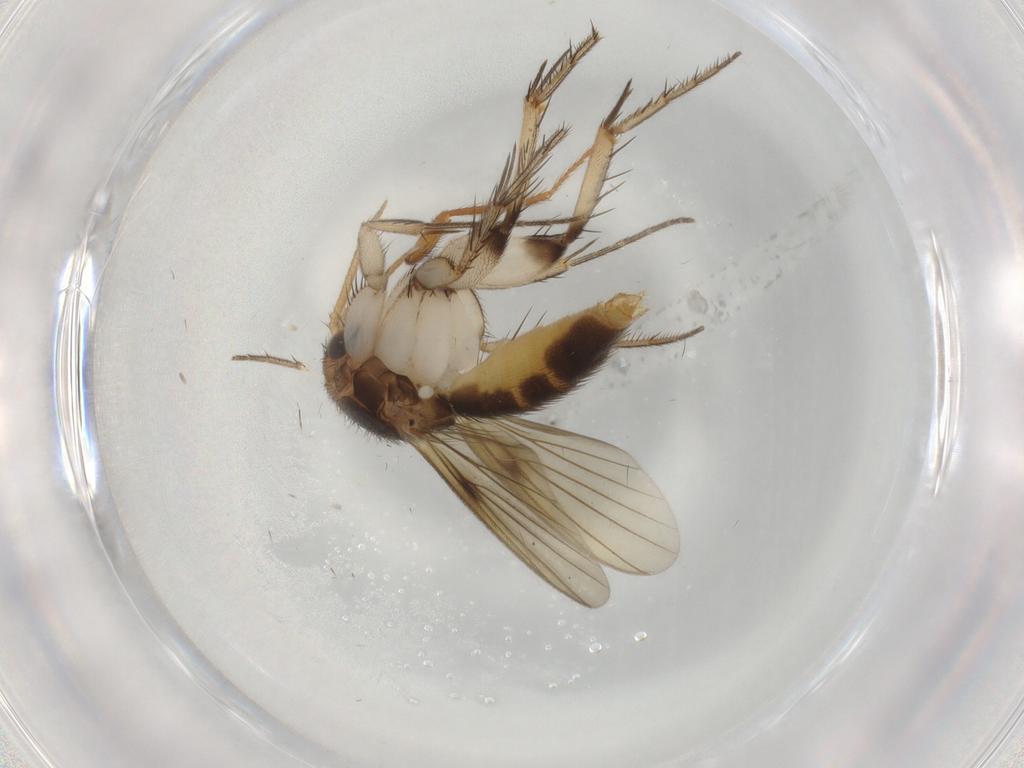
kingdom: Animalia
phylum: Arthropoda
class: Insecta
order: Diptera
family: Mycetophilidae
